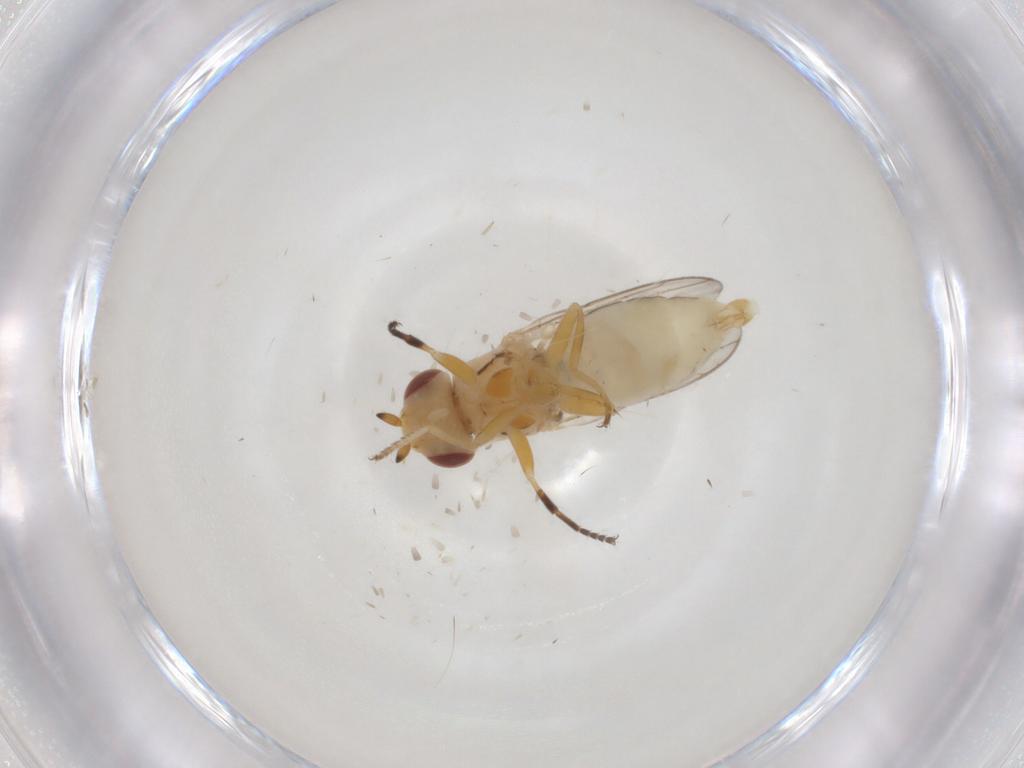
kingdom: Animalia
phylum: Arthropoda
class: Insecta
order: Diptera
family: Chloropidae
